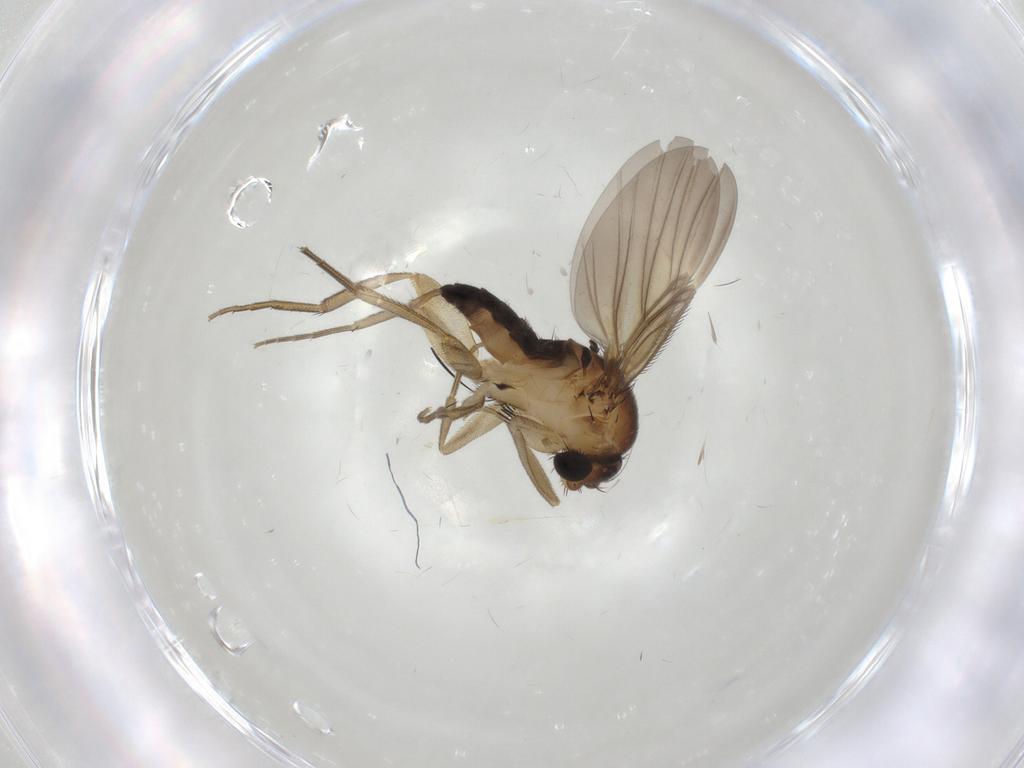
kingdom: Animalia
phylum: Arthropoda
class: Insecta
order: Diptera
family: Phoridae
